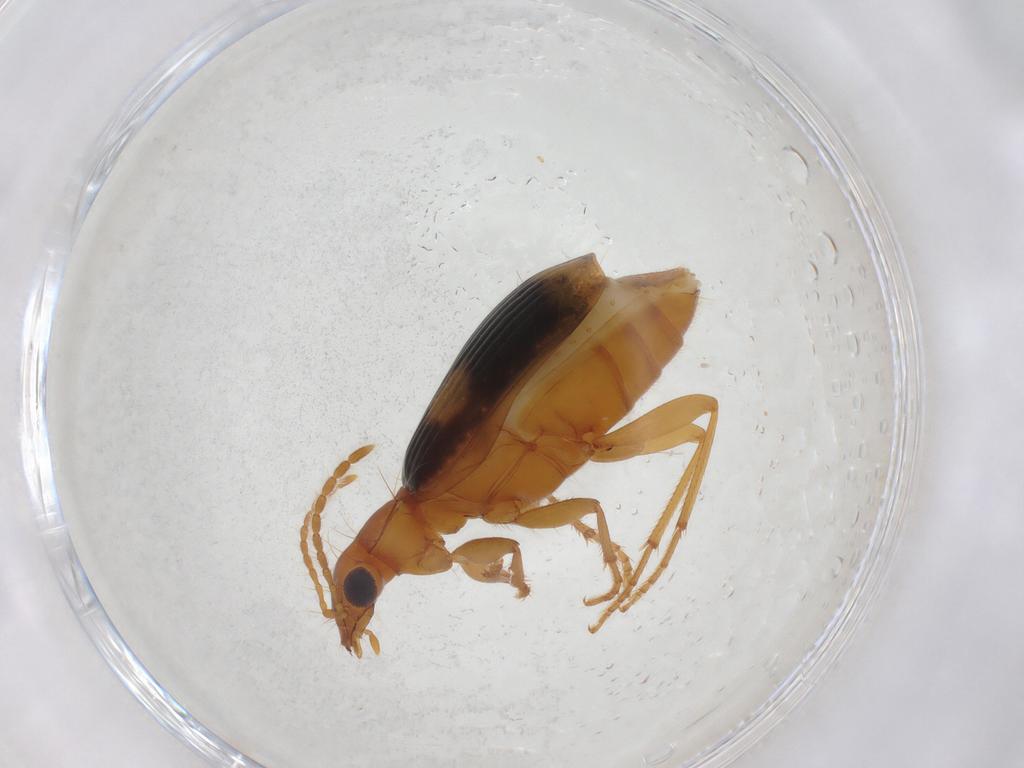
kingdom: Animalia
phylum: Arthropoda
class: Insecta
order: Coleoptera
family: Carabidae
